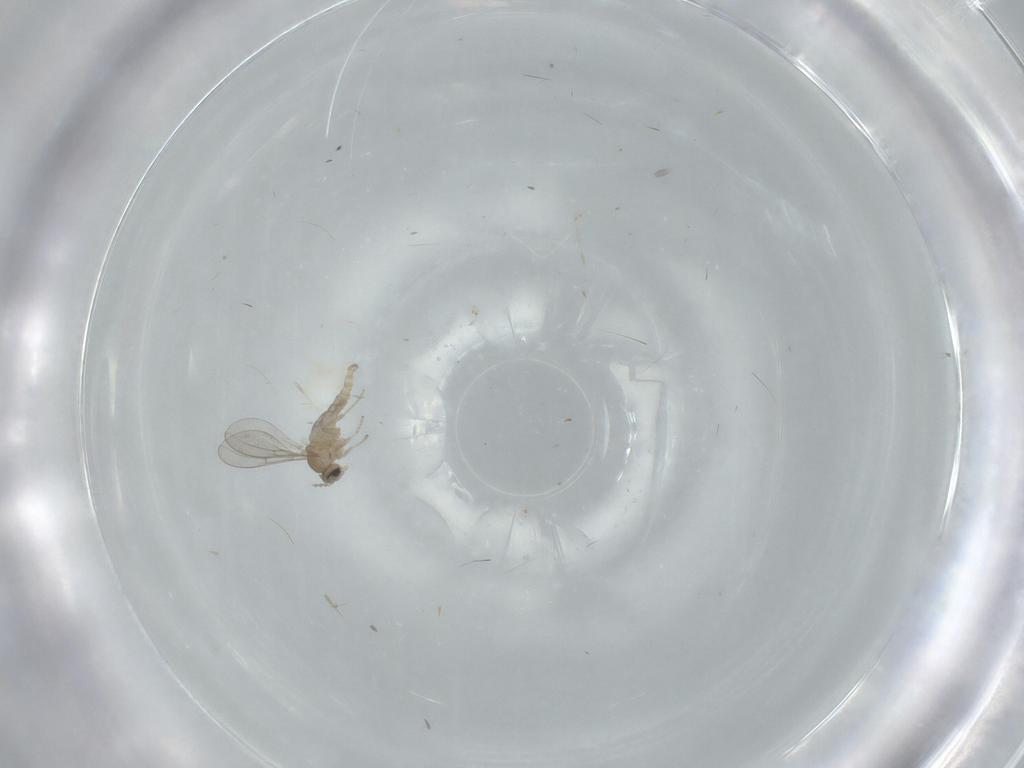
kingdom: Animalia
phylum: Arthropoda
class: Insecta
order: Diptera
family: Cecidomyiidae
